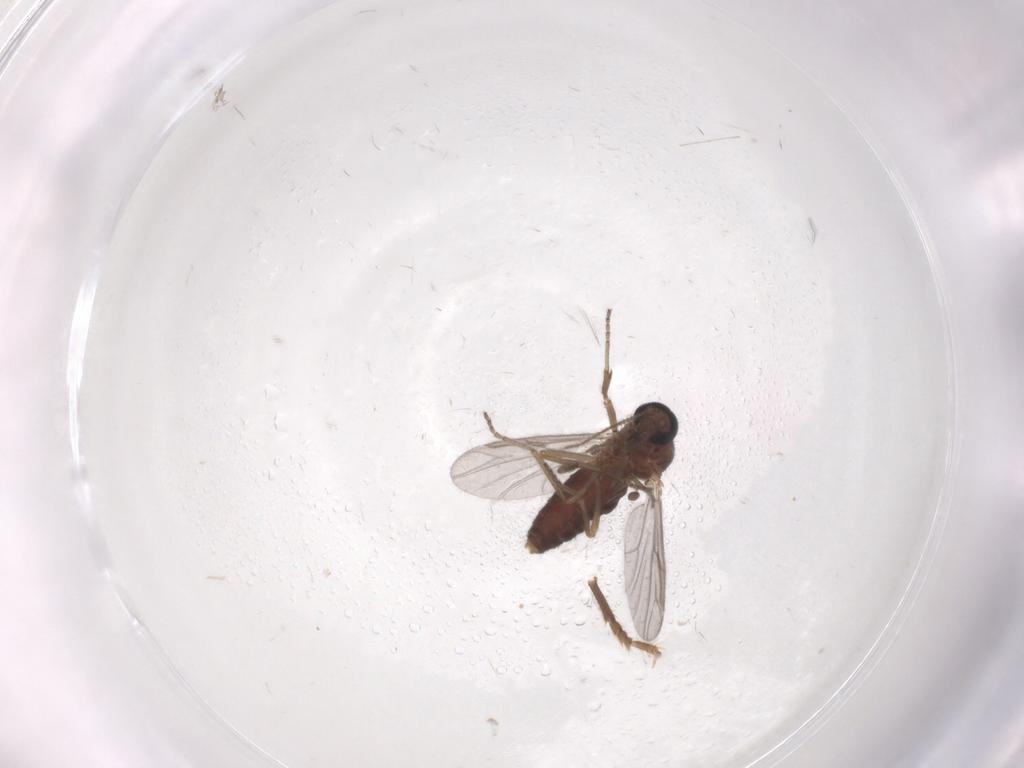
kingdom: Animalia
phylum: Arthropoda
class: Insecta
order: Diptera
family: Ceratopogonidae
